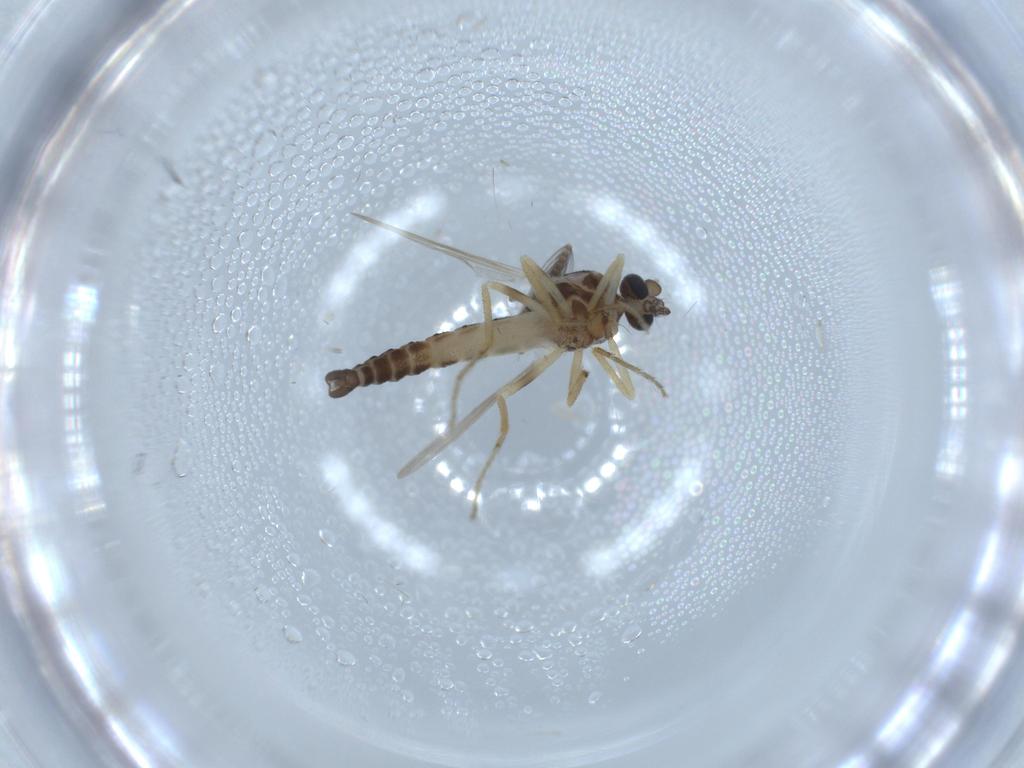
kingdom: Animalia
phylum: Arthropoda
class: Insecta
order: Diptera
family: Ceratopogonidae
